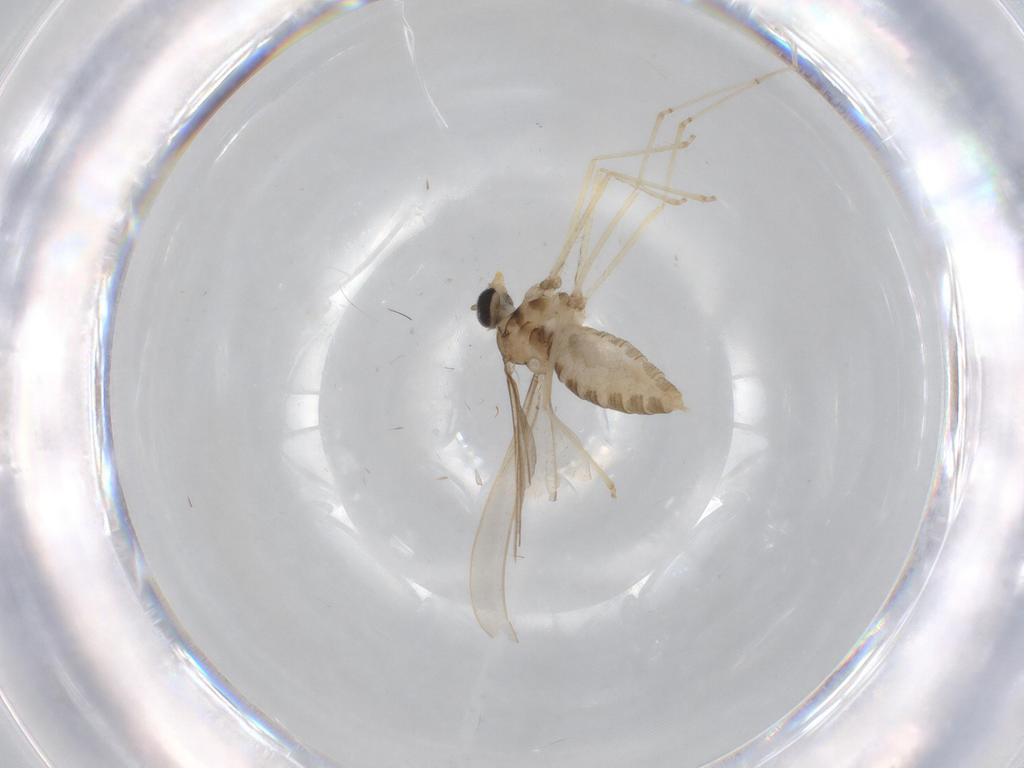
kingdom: Animalia
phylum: Arthropoda
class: Insecta
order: Diptera
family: Cecidomyiidae
